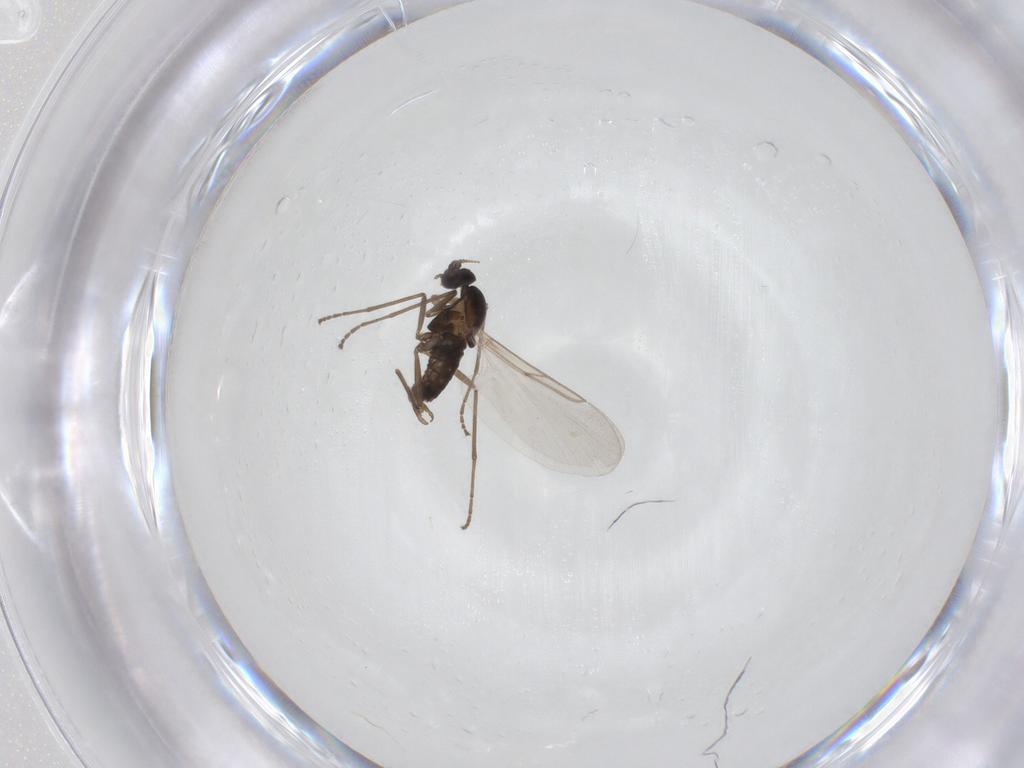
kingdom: Animalia
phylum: Arthropoda
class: Insecta
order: Diptera
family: Cecidomyiidae
